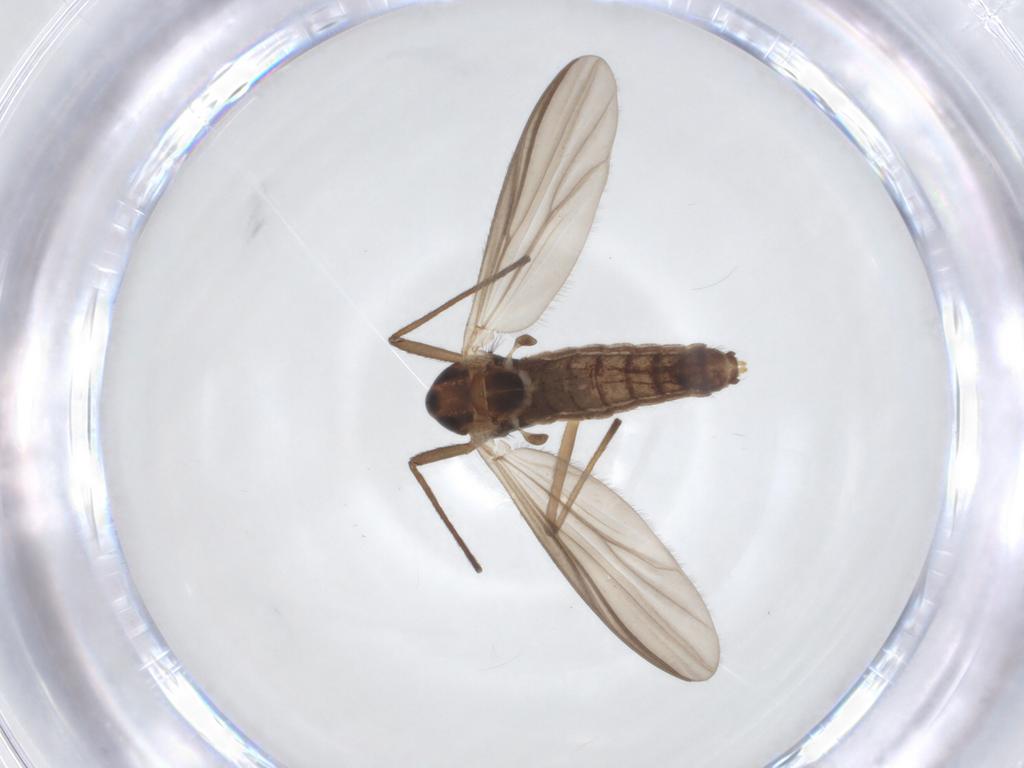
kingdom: Animalia
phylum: Arthropoda
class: Insecta
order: Diptera
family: Chironomidae
